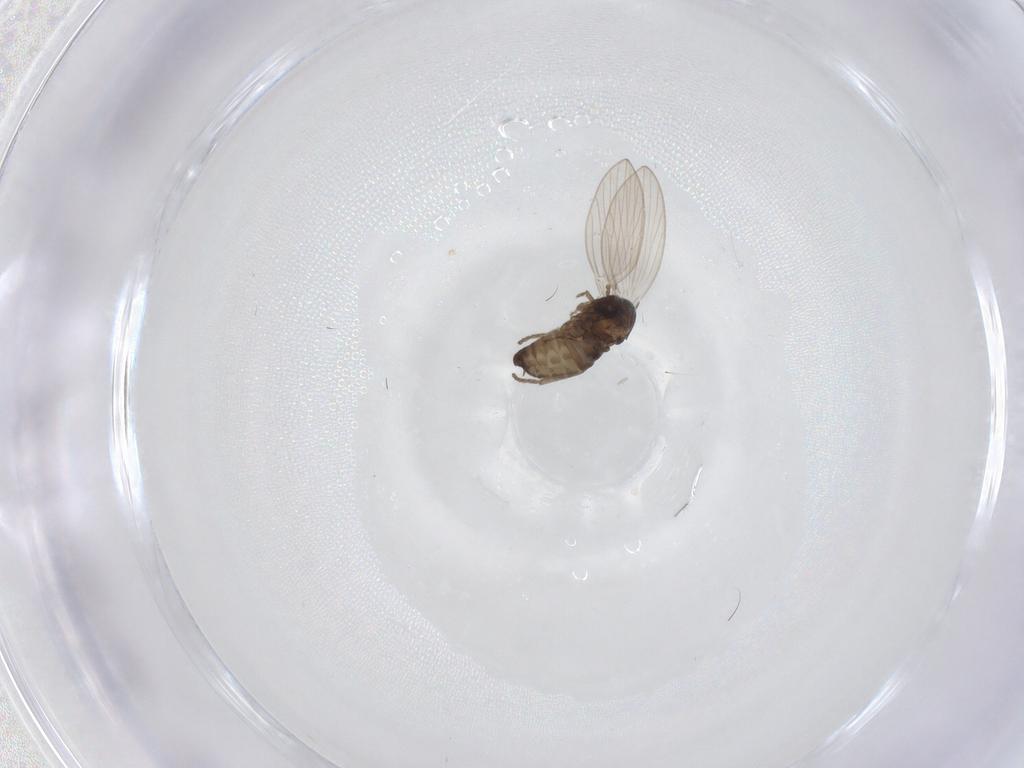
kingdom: Animalia
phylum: Arthropoda
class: Insecta
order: Diptera
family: Psychodidae
